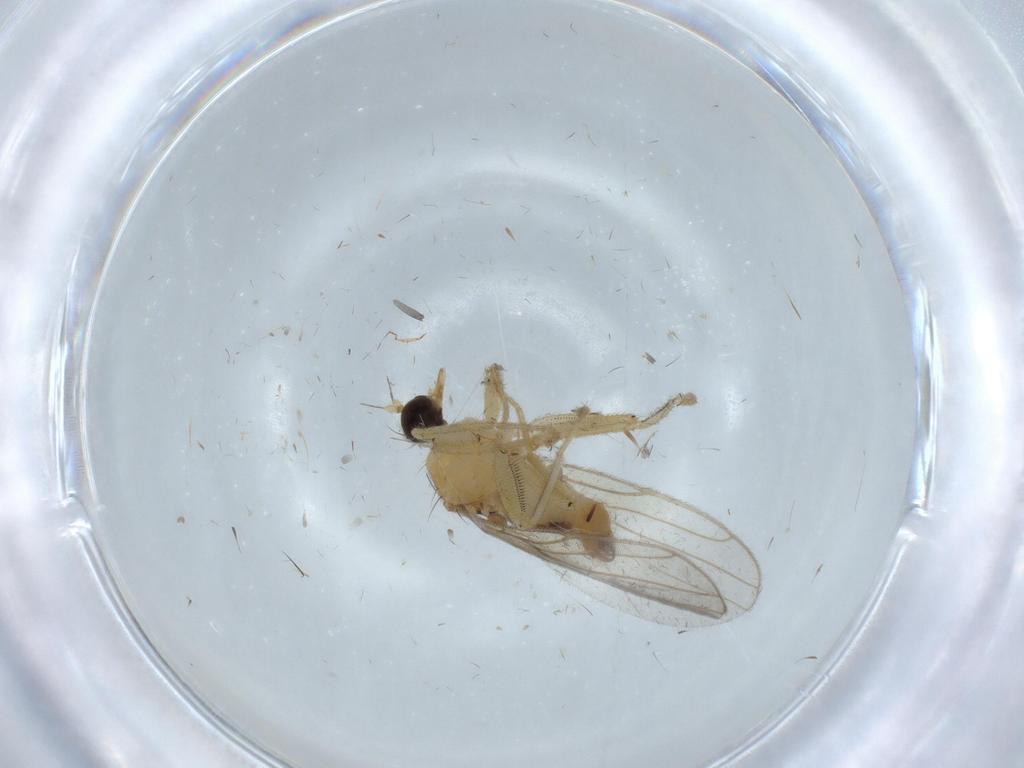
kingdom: Animalia
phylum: Arthropoda
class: Insecta
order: Diptera
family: Hybotidae
